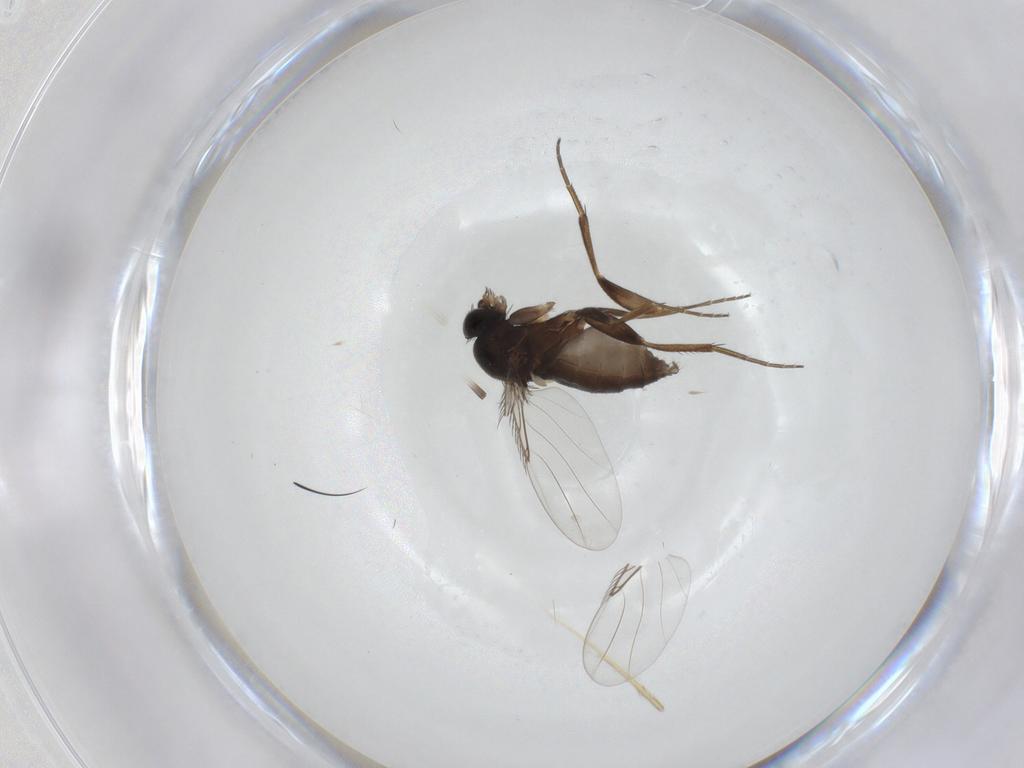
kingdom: Animalia
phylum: Arthropoda
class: Insecta
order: Diptera
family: Phoridae
